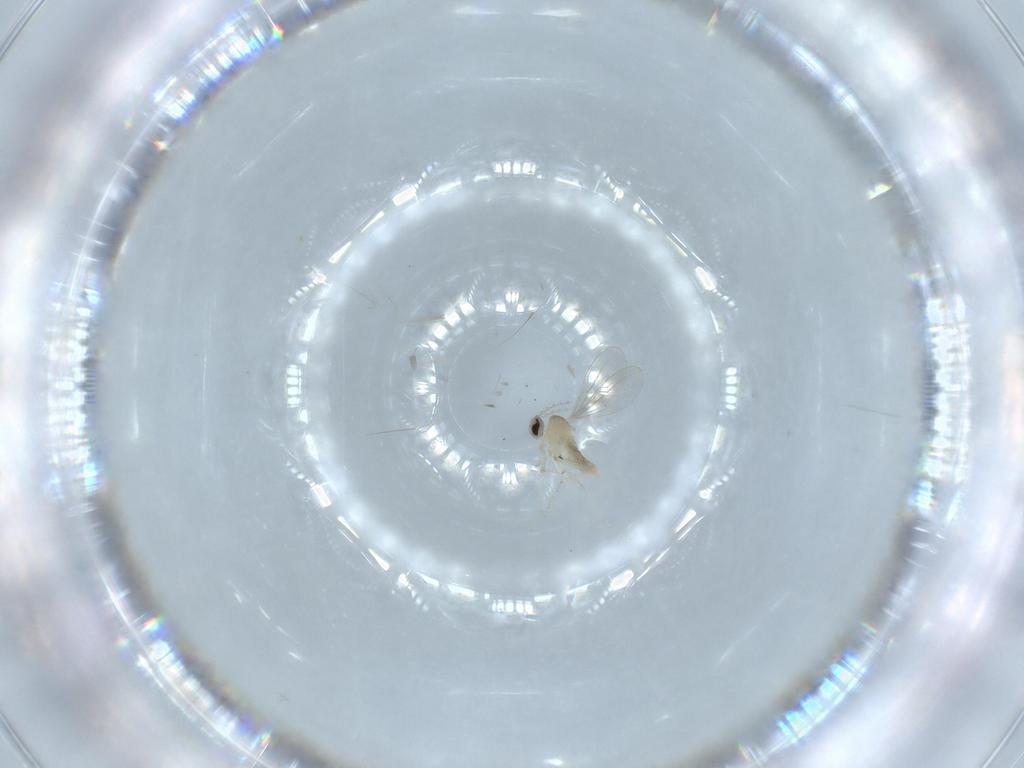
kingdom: Animalia
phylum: Arthropoda
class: Insecta
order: Diptera
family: Cecidomyiidae
